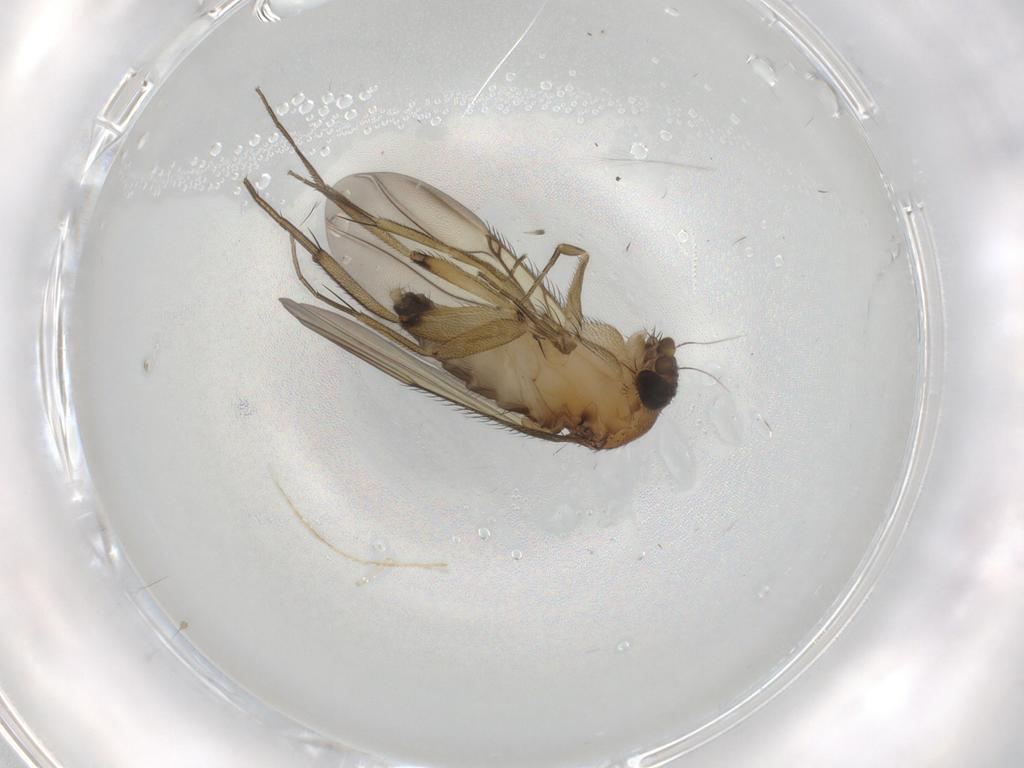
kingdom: Animalia
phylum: Arthropoda
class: Insecta
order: Diptera
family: Phoridae
